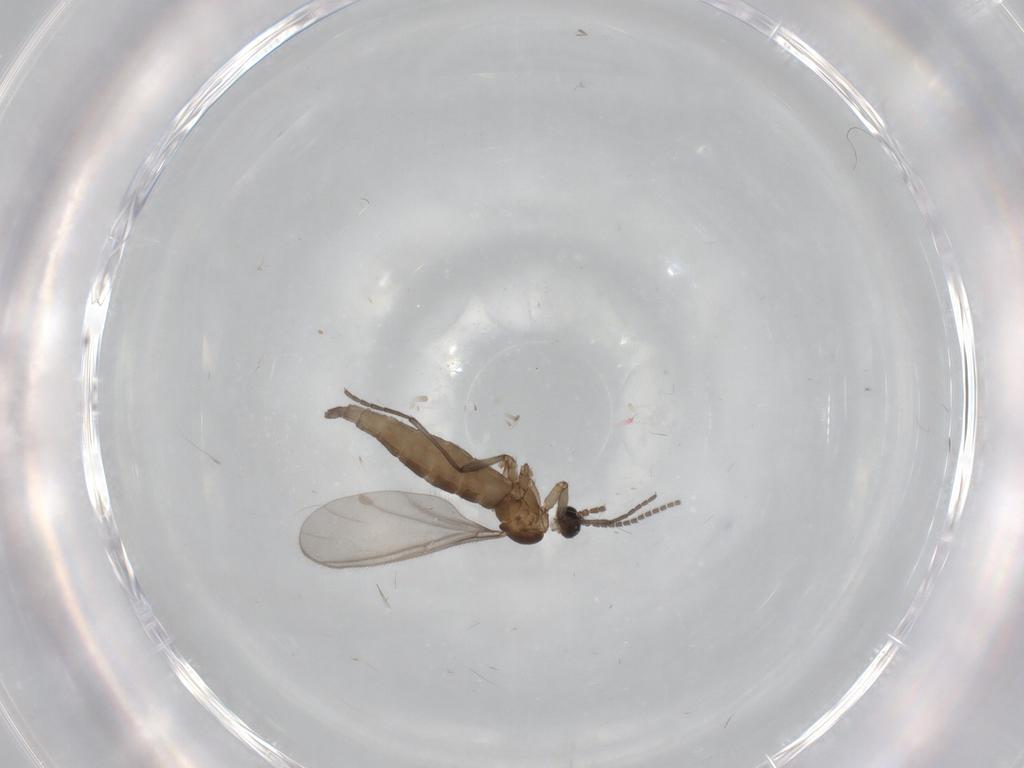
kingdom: Animalia
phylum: Arthropoda
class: Insecta
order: Diptera
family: Sciaridae
